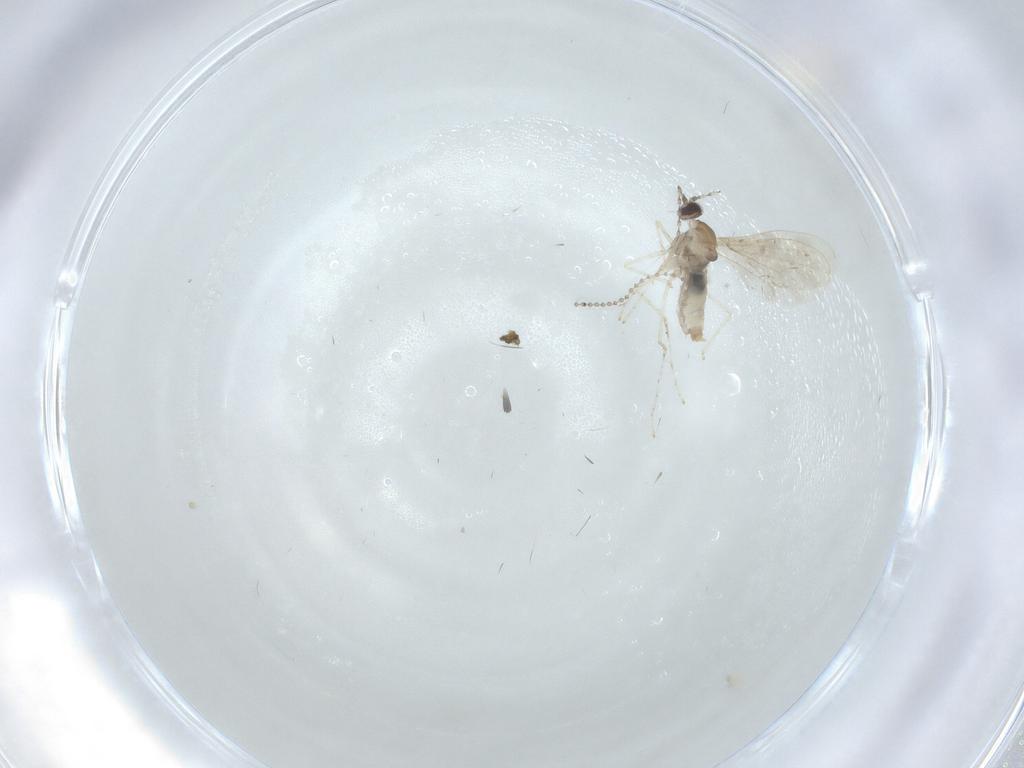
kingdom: Animalia
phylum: Arthropoda
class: Insecta
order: Diptera
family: Cecidomyiidae
